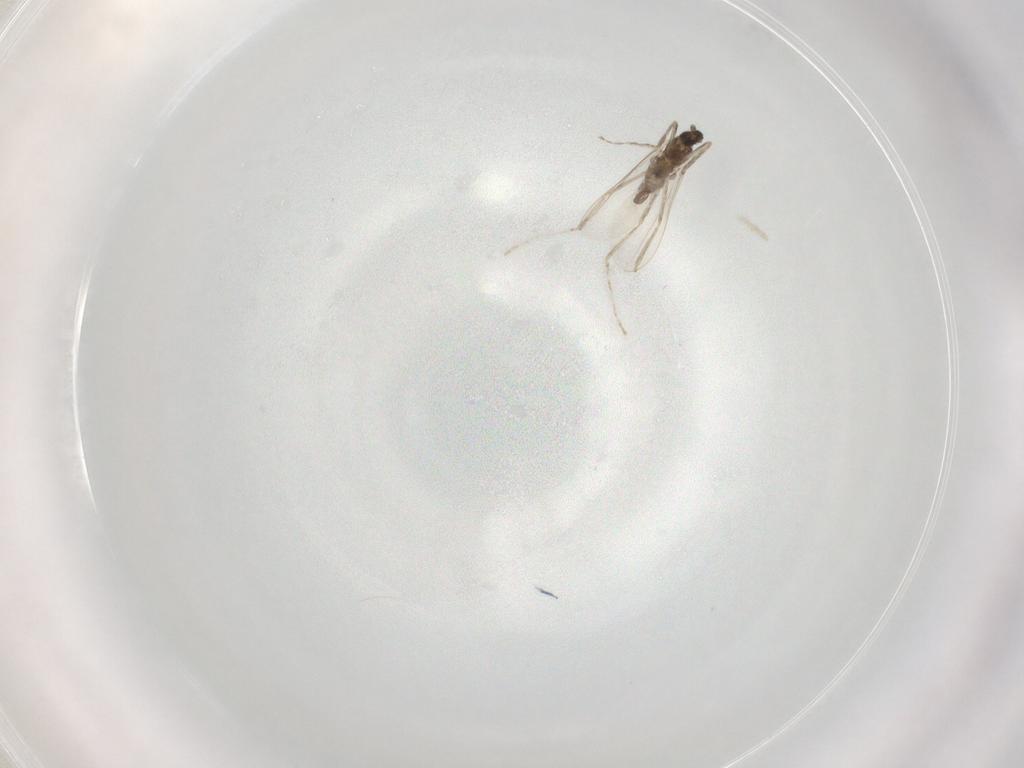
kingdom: Animalia
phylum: Arthropoda
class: Insecta
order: Diptera
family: Cecidomyiidae
